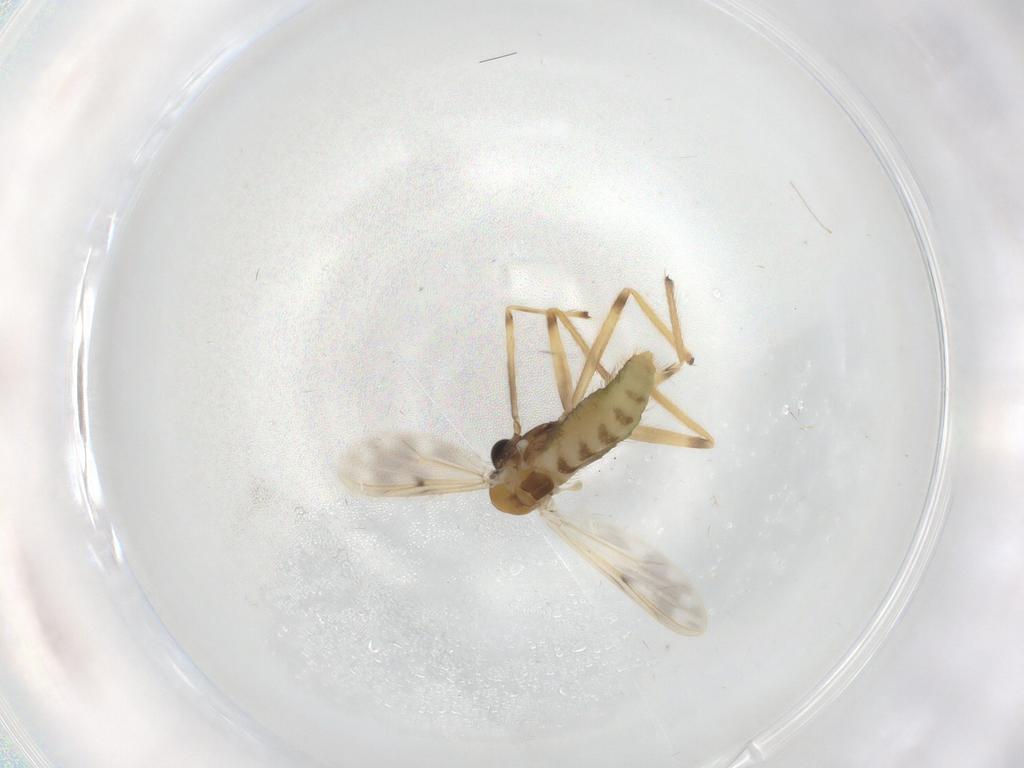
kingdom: Animalia
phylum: Arthropoda
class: Insecta
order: Diptera
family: Chironomidae
